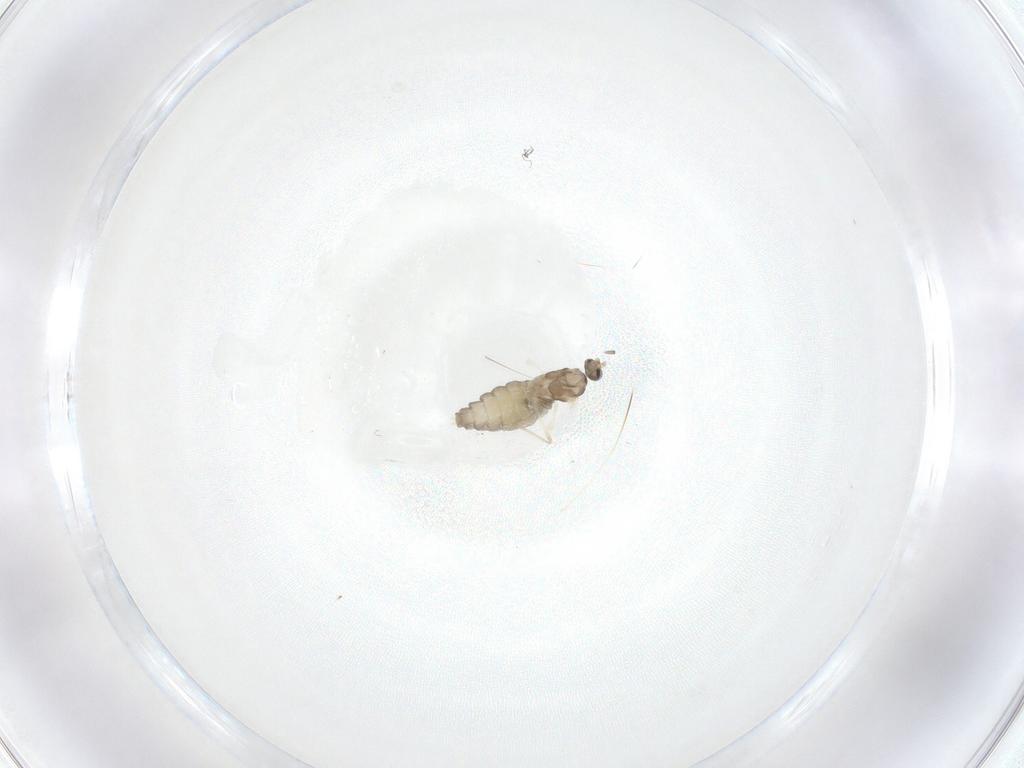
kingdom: Animalia
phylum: Arthropoda
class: Insecta
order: Diptera
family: Cecidomyiidae
